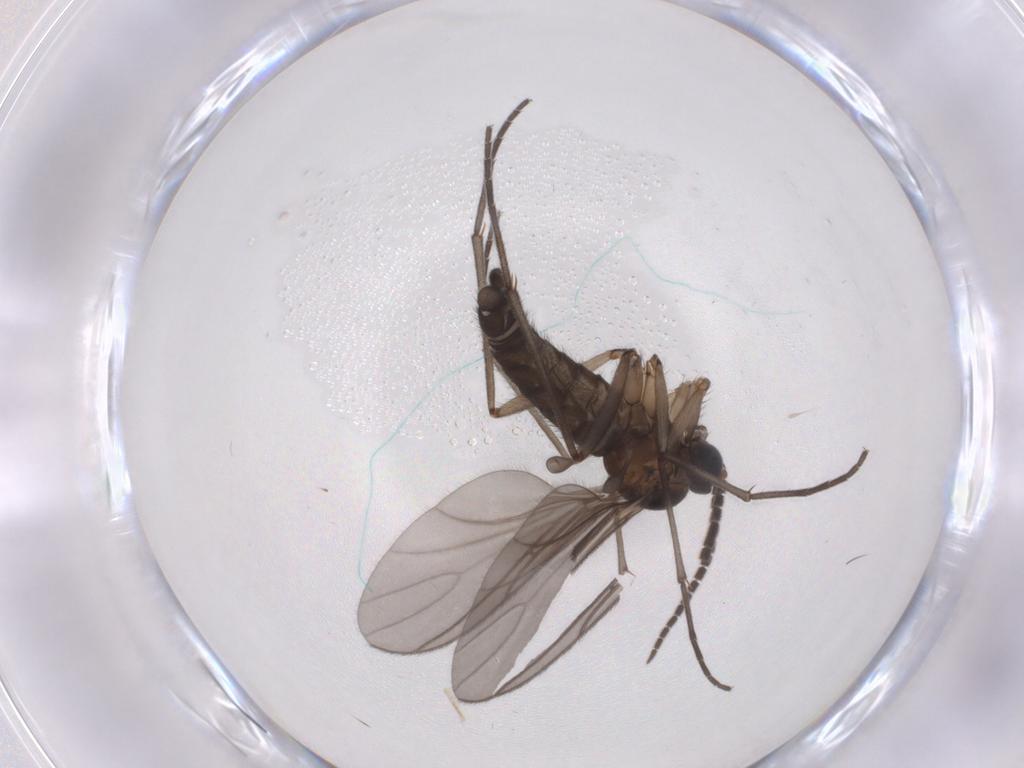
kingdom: Animalia
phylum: Arthropoda
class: Insecta
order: Diptera
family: Sciaridae
